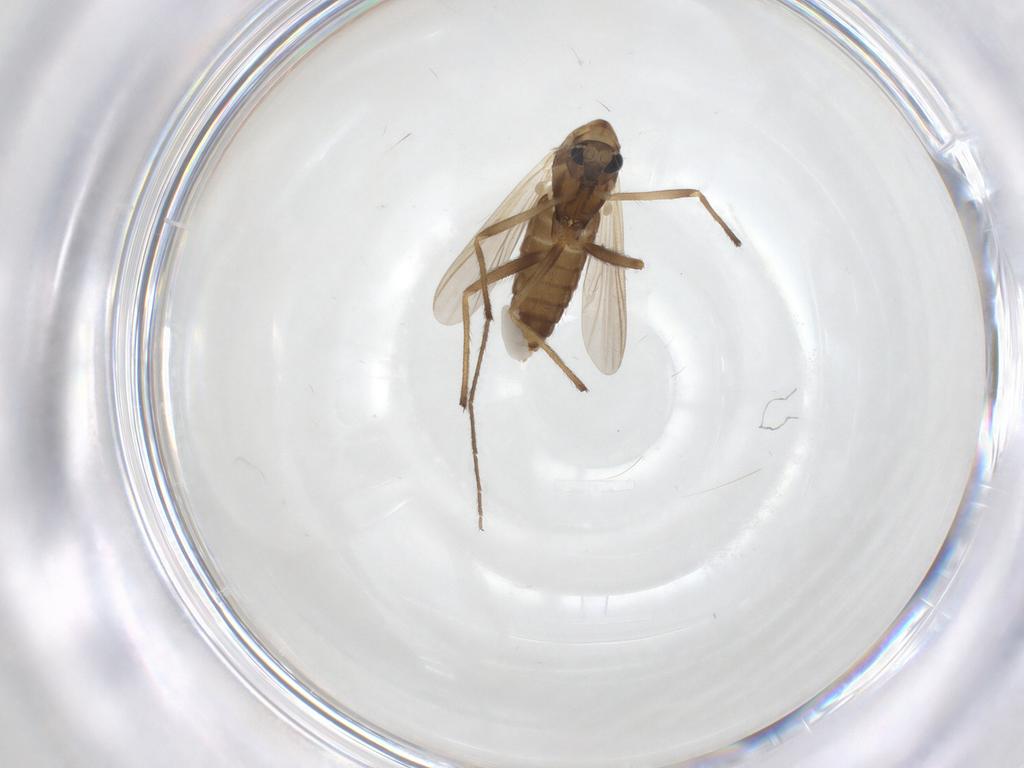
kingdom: Animalia
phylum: Arthropoda
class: Insecta
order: Diptera
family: Chironomidae
